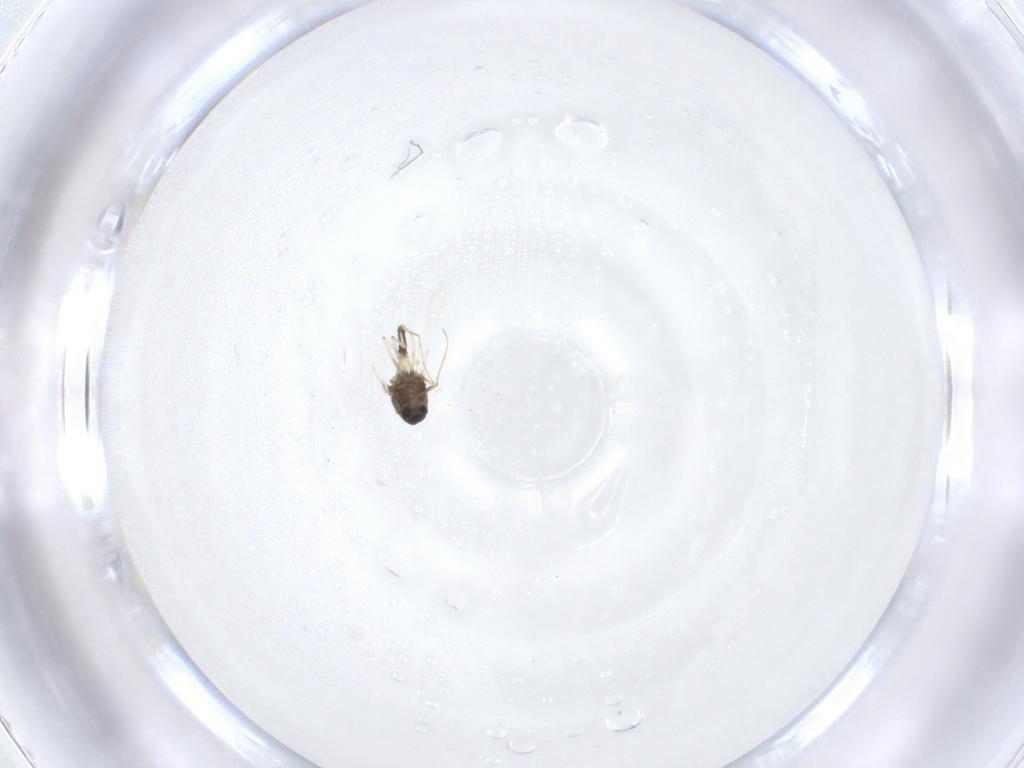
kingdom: Animalia
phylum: Arthropoda
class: Insecta
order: Diptera
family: Chironomidae
